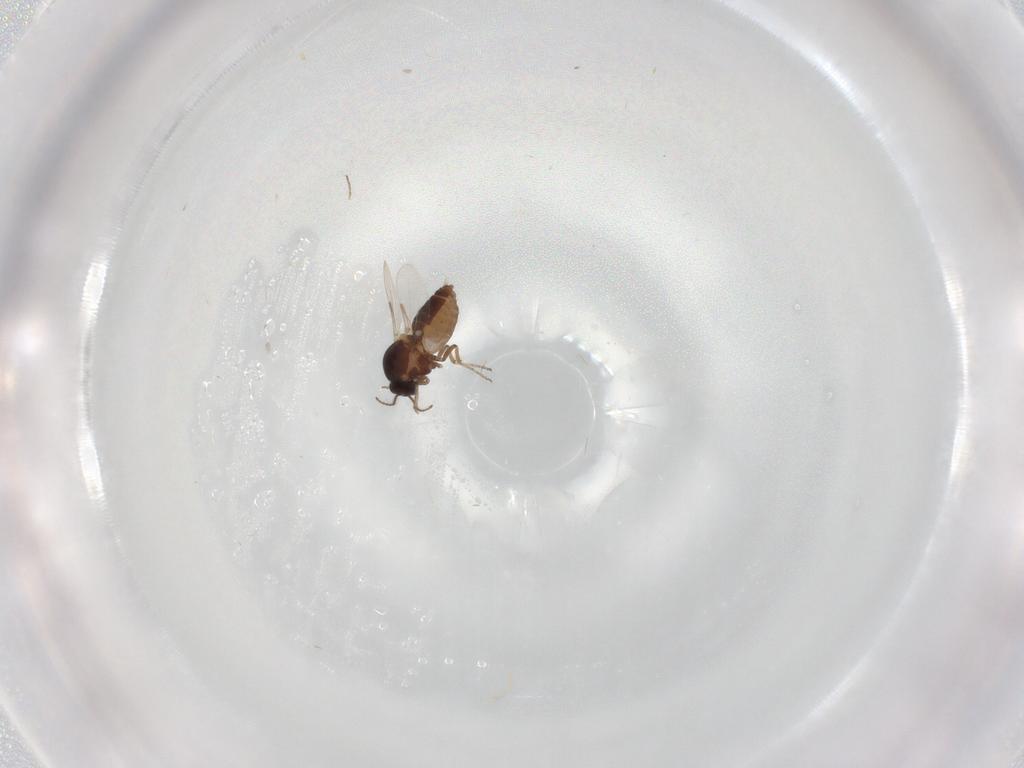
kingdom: Animalia
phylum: Arthropoda
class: Insecta
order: Diptera
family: Ceratopogonidae
